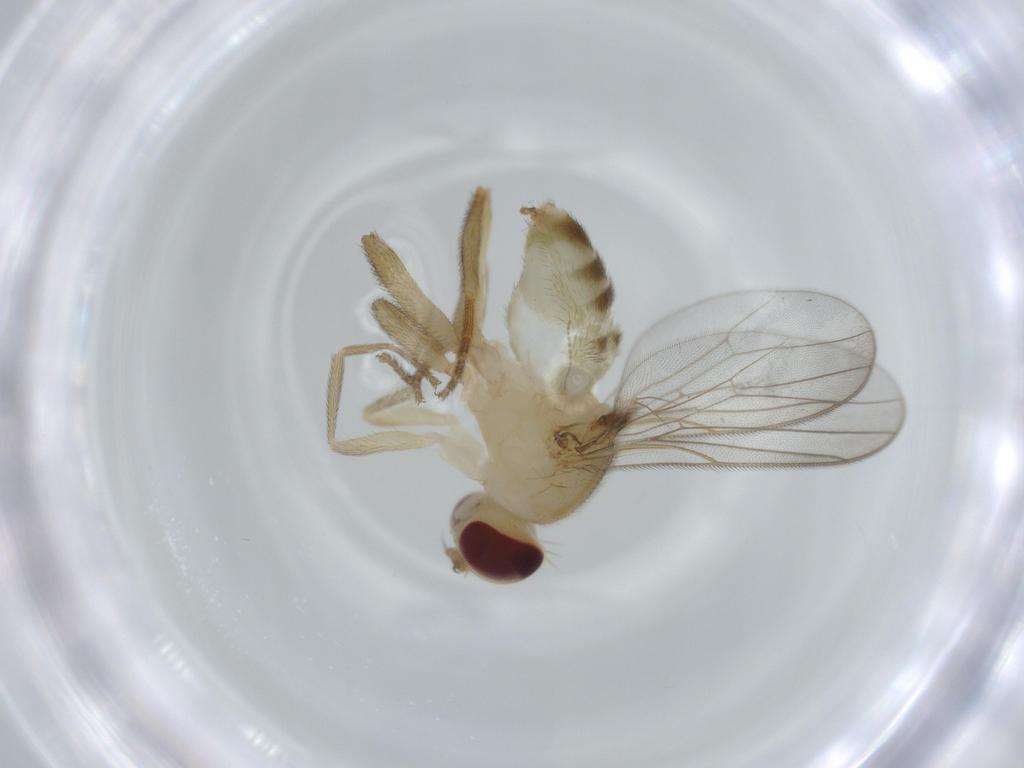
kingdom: Animalia
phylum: Arthropoda
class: Insecta
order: Diptera
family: Chloropidae
